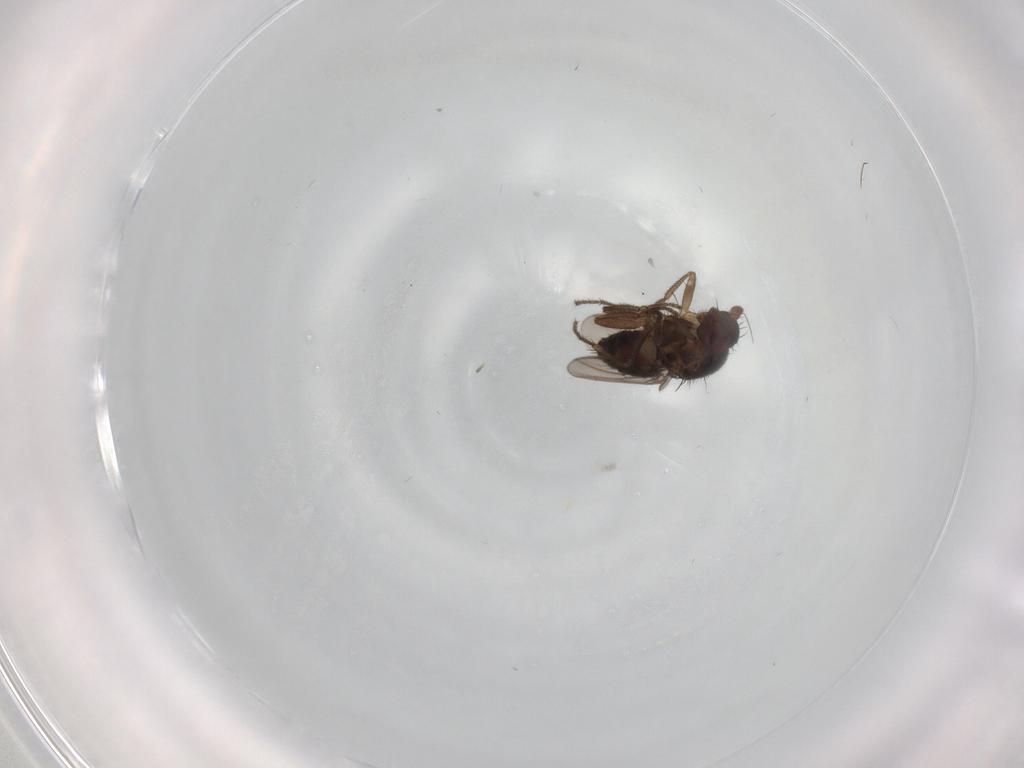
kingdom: Animalia
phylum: Arthropoda
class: Insecta
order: Diptera
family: Sphaeroceridae
